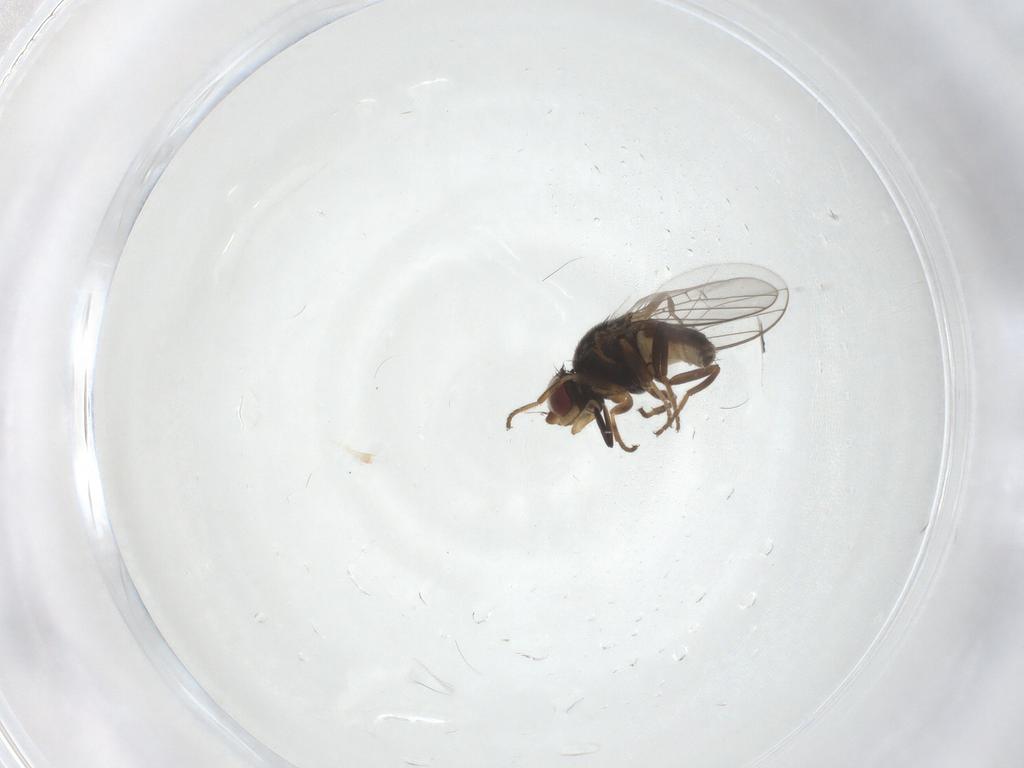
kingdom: Animalia
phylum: Arthropoda
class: Insecta
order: Diptera
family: Chloropidae
